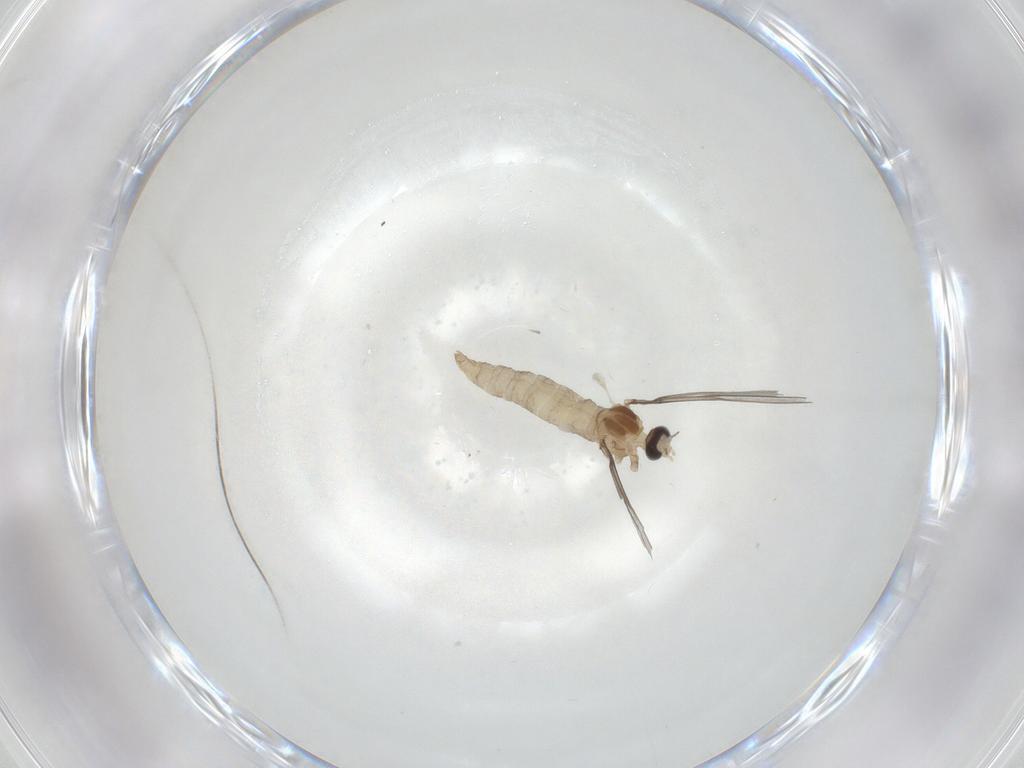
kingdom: Animalia
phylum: Arthropoda
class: Insecta
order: Diptera
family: Cecidomyiidae
